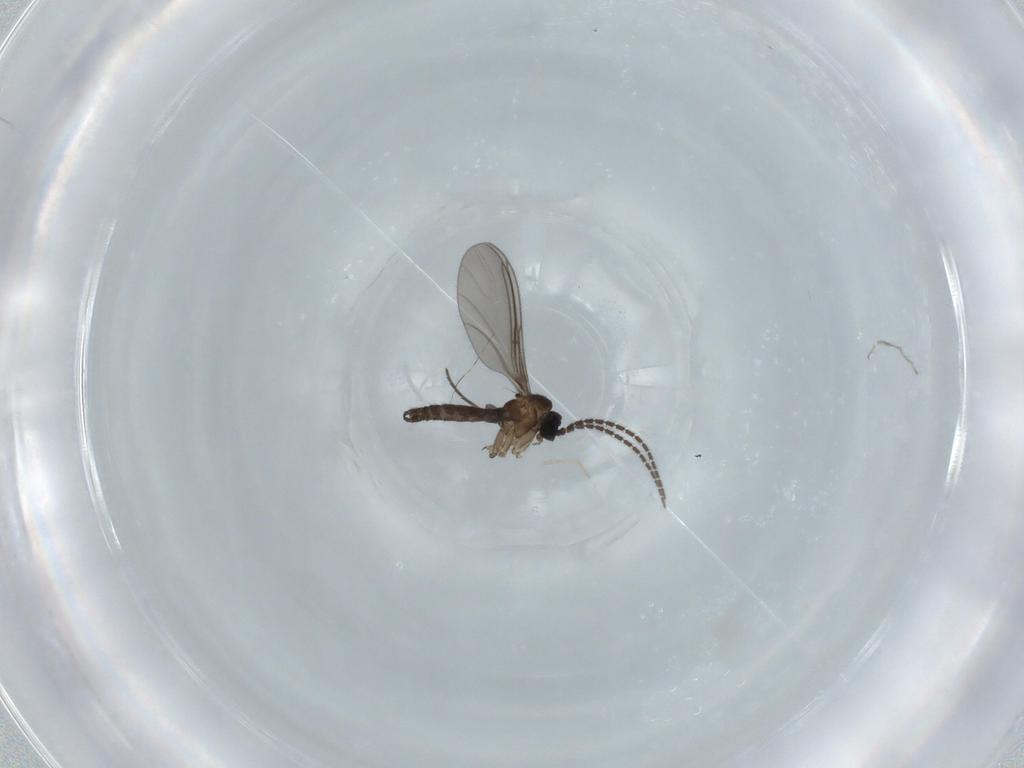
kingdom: Animalia
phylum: Arthropoda
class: Insecta
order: Diptera
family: Sciaridae
